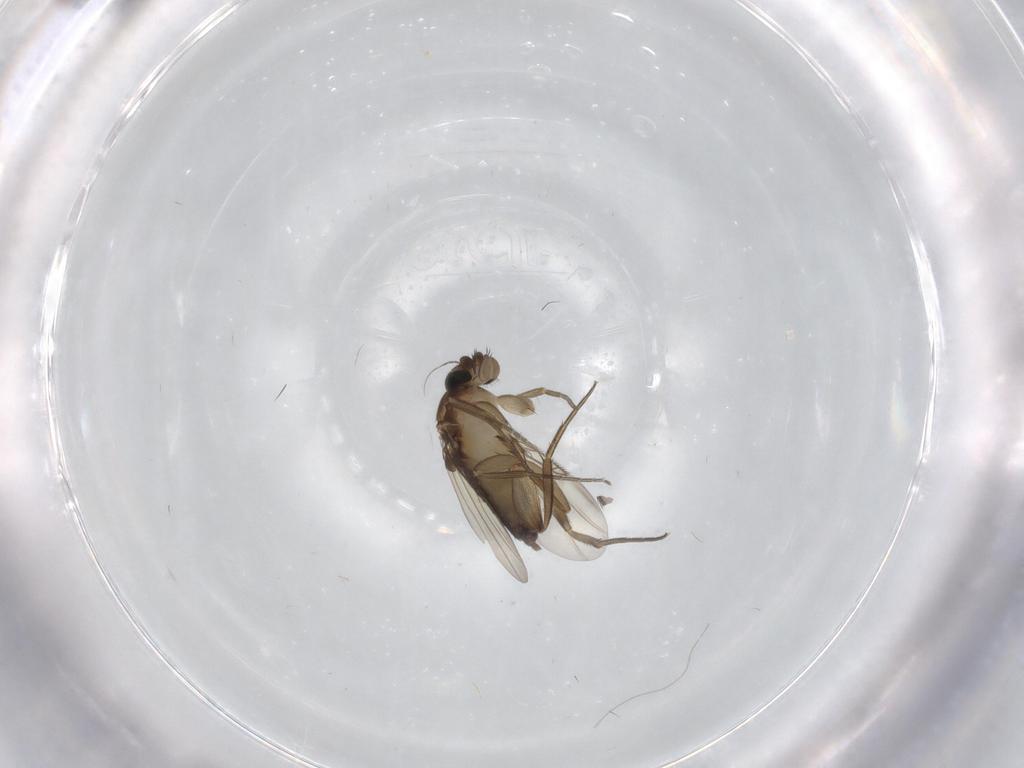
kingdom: Animalia
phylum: Arthropoda
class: Insecta
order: Diptera
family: Phoridae
